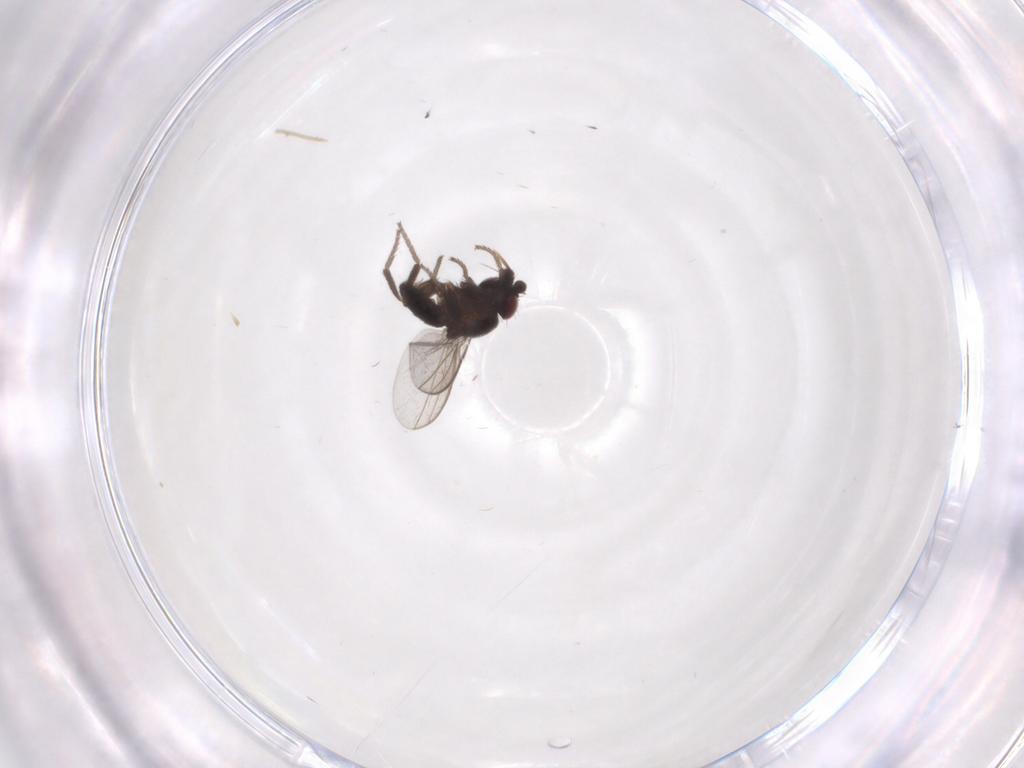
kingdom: Animalia
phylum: Arthropoda
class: Insecta
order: Diptera
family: Milichiidae
